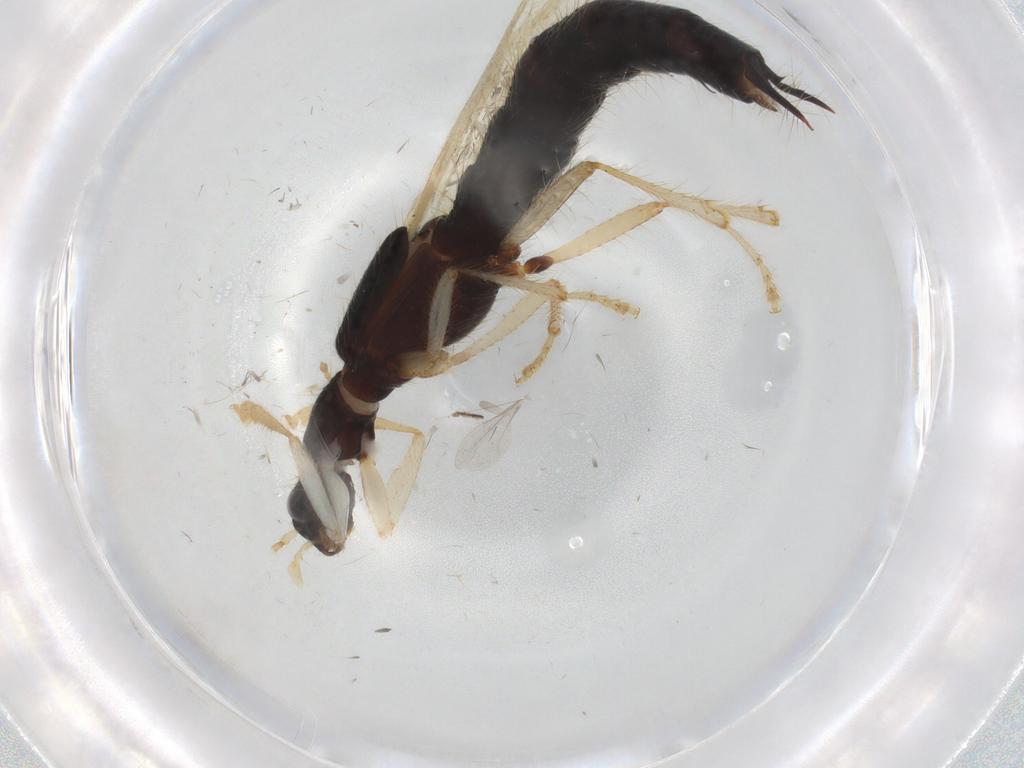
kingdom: Animalia
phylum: Arthropoda
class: Insecta
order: Coleoptera
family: Staphylinidae
